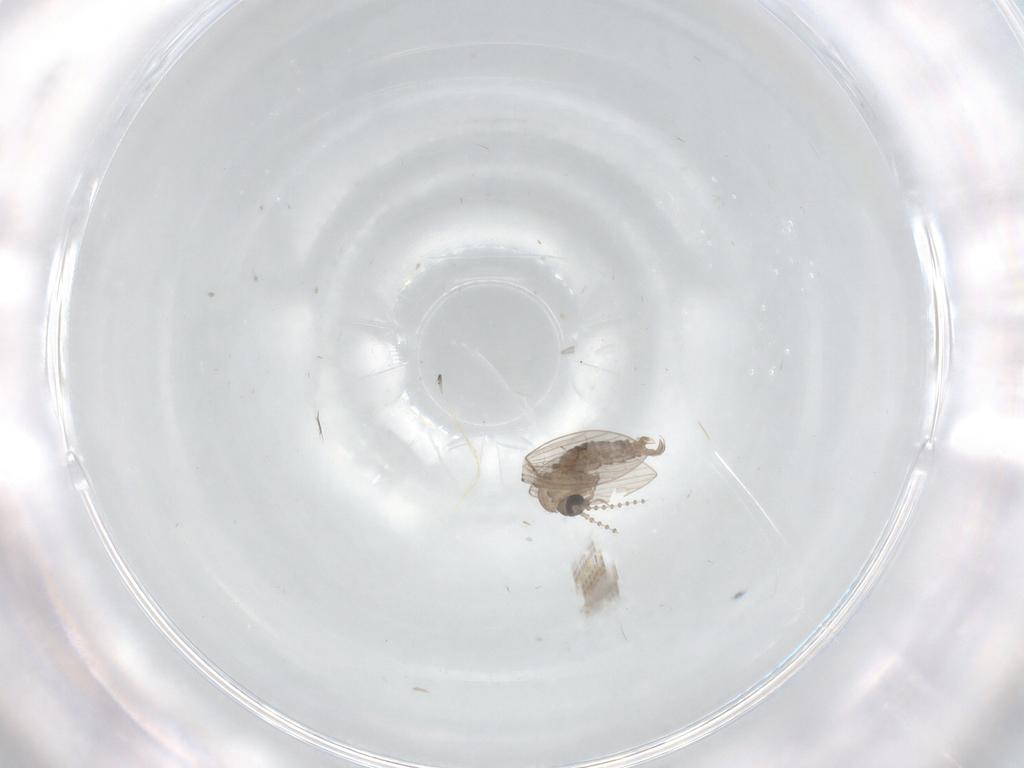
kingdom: Animalia
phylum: Arthropoda
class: Insecta
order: Diptera
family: Psychodidae
